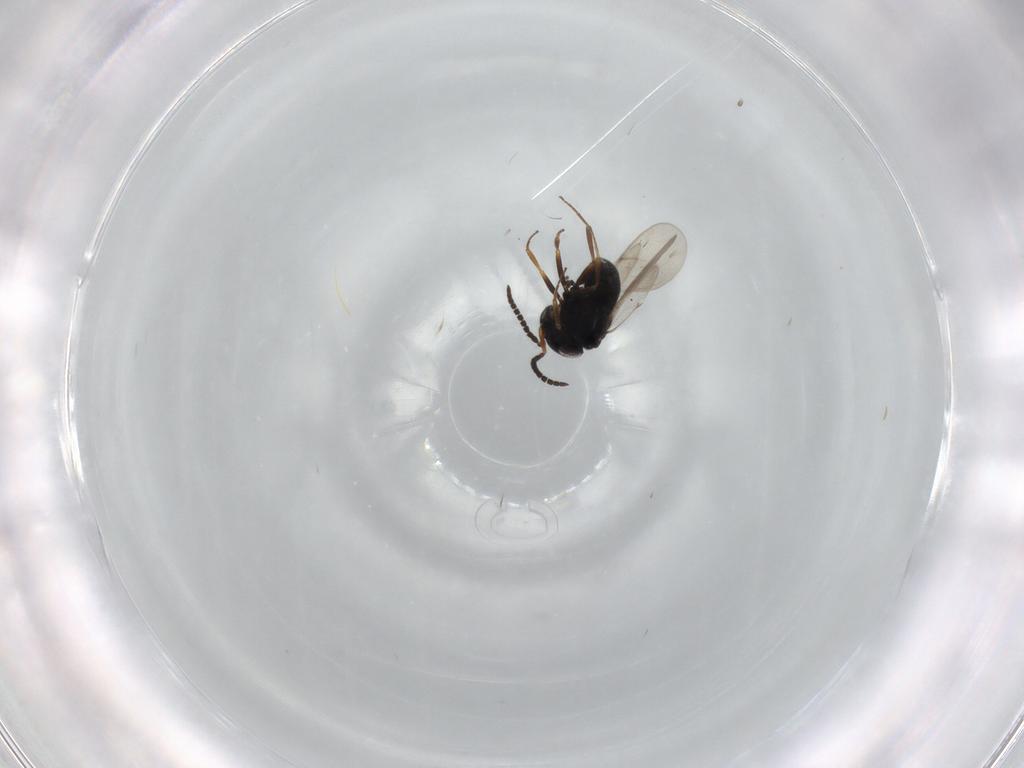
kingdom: Animalia
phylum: Arthropoda
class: Insecta
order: Hymenoptera
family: Scelionidae
